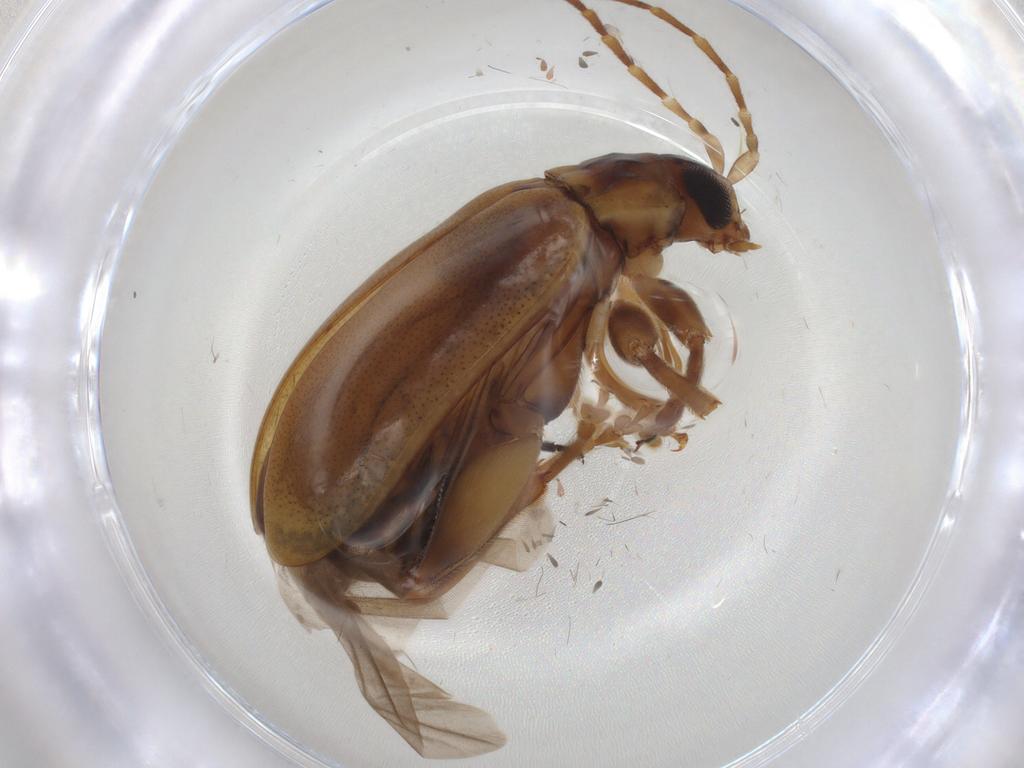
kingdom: Animalia
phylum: Arthropoda
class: Insecta
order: Coleoptera
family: Chrysomelidae
